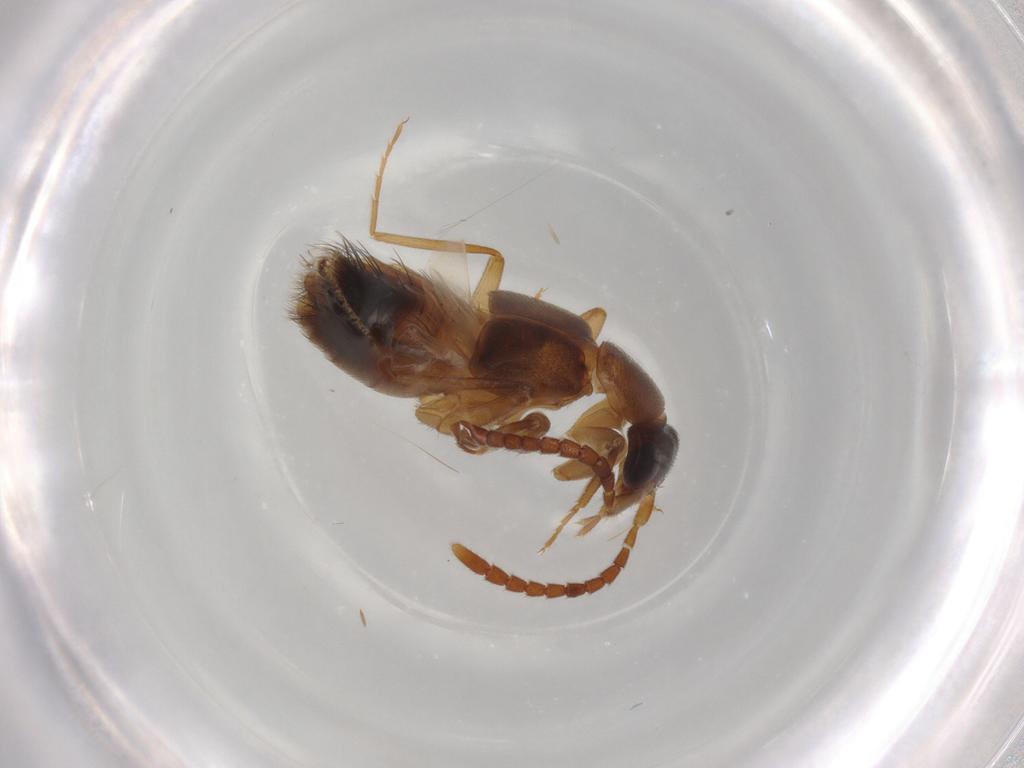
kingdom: Animalia
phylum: Arthropoda
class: Insecta
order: Coleoptera
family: Staphylinidae
